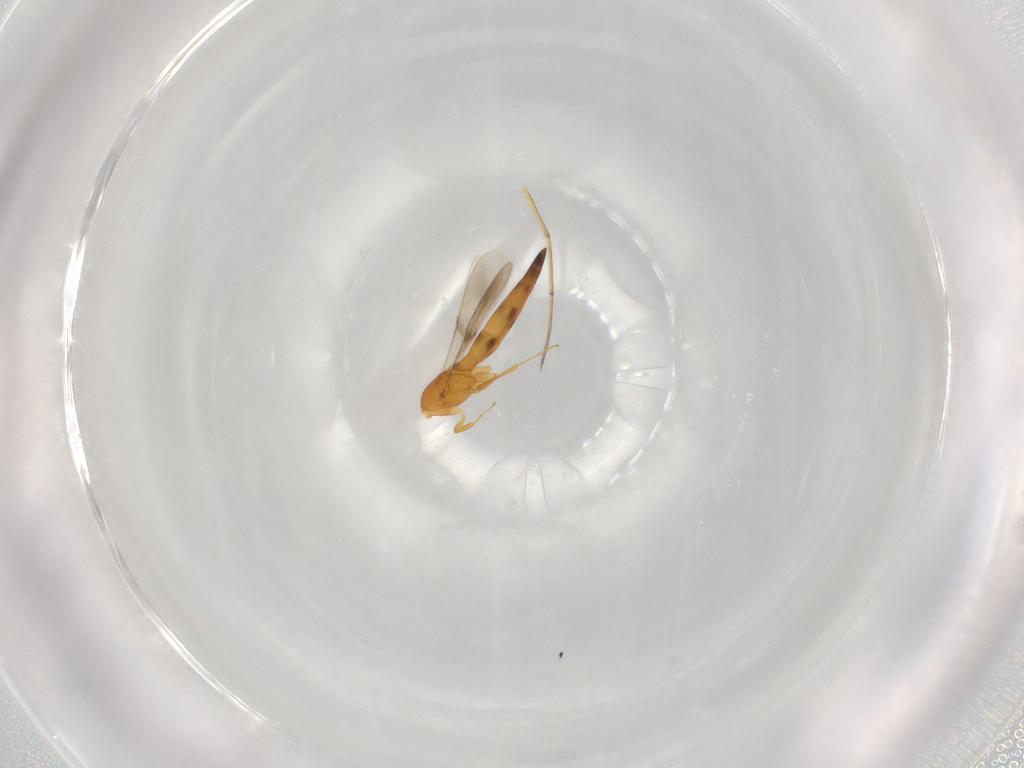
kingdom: Animalia
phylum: Arthropoda
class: Insecta
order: Hymenoptera
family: Scelionidae
